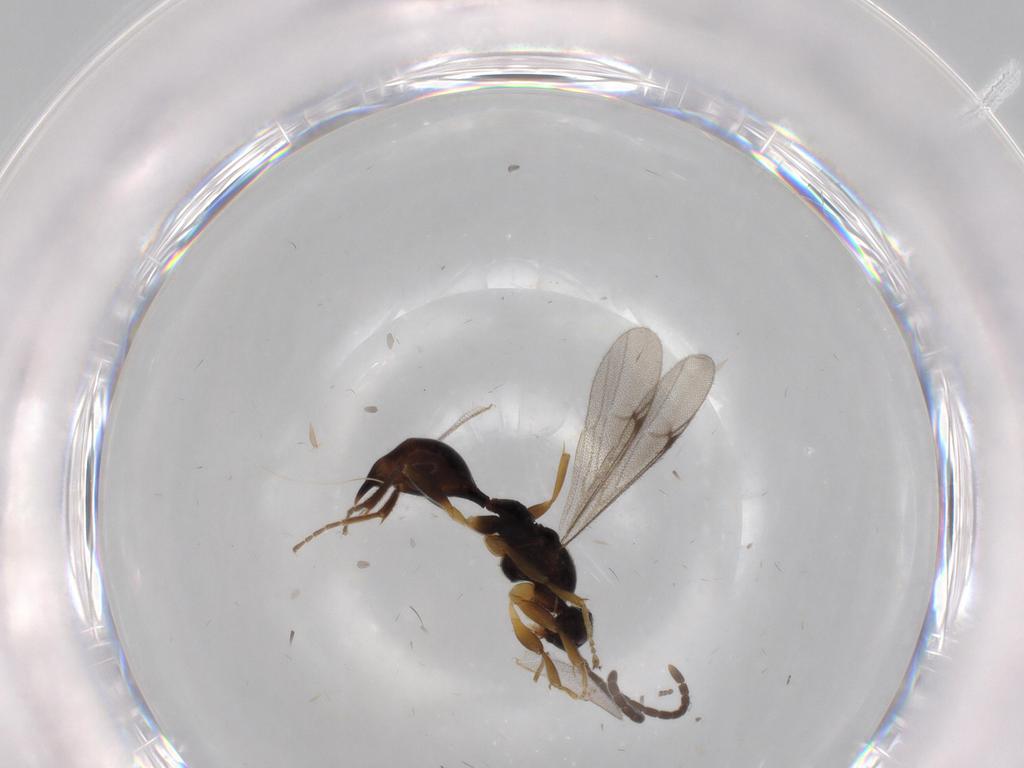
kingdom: Animalia
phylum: Arthropoda
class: Insecta
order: Hymenoptera
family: Proctotrupidae
